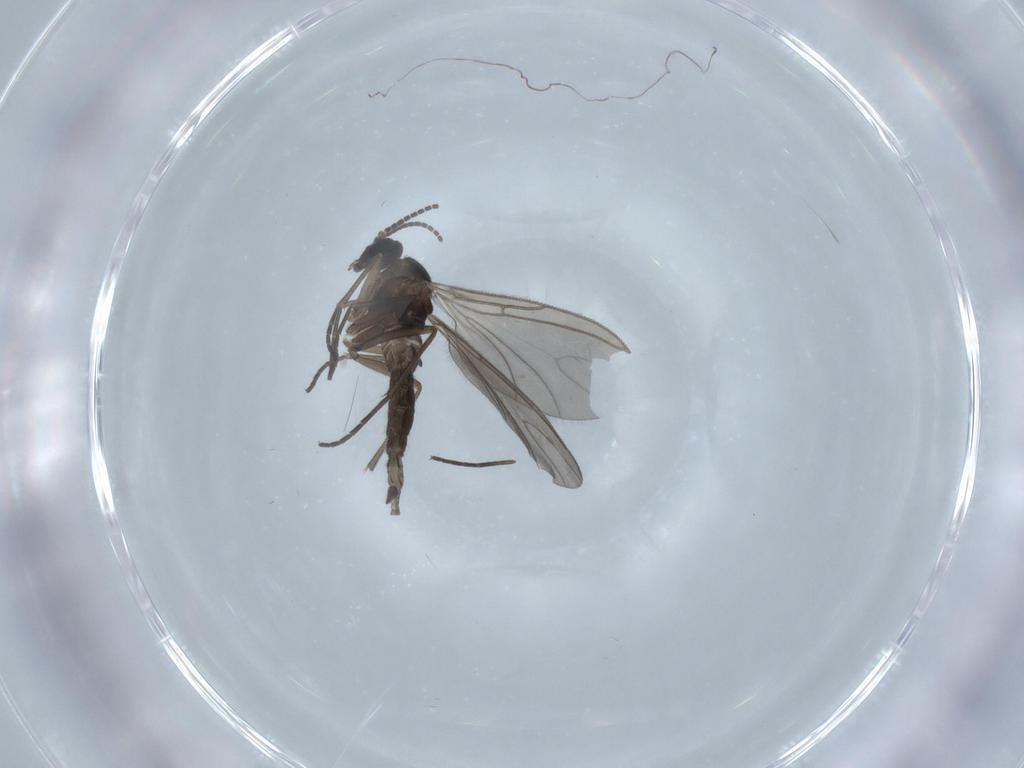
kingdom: Animalia
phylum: Arthropoda
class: Insecta
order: Diptera
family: Sciaridae
